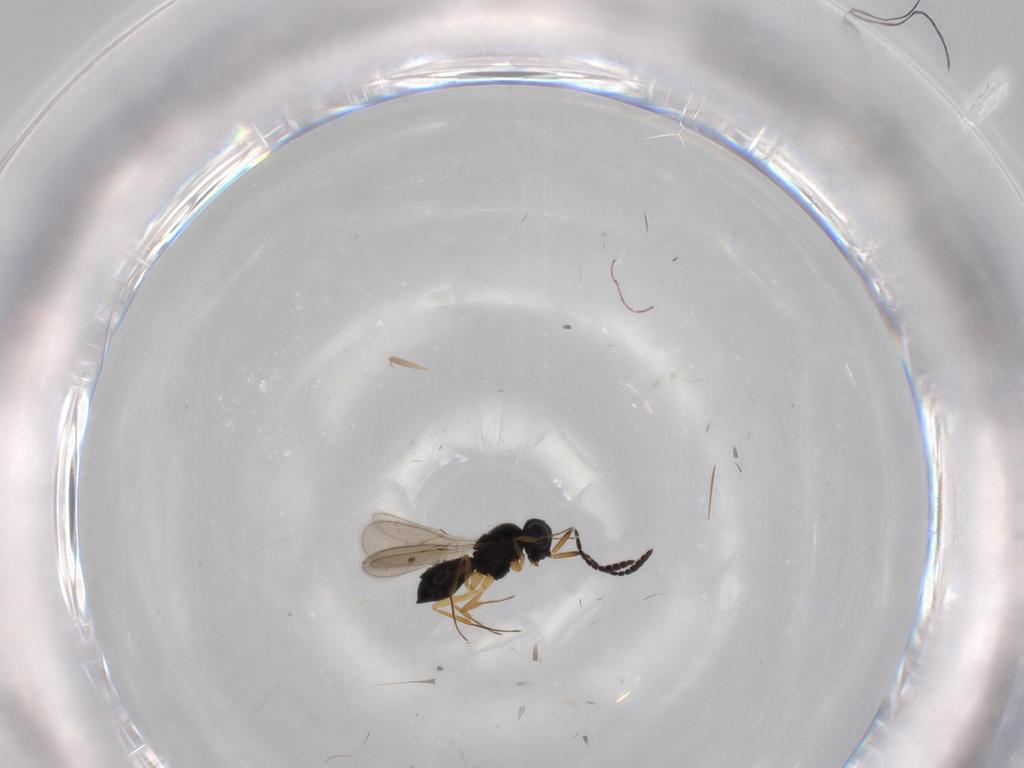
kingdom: Animalia
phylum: Arthropoda
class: Insecta
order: Hymenoptera
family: Scelionidae
